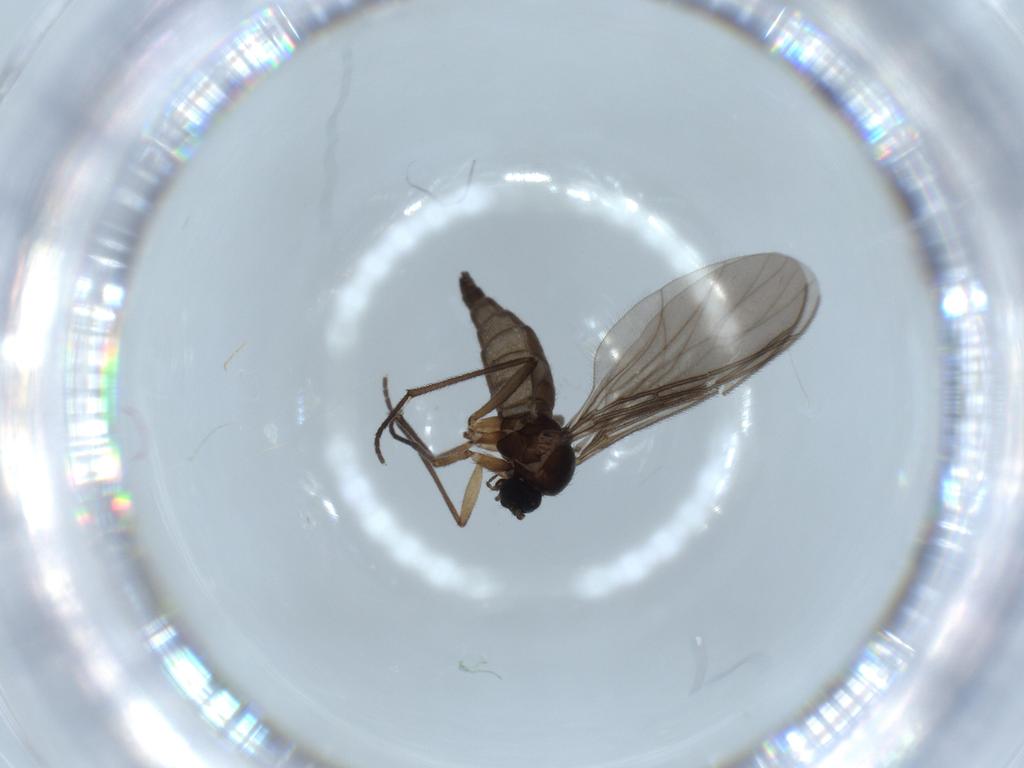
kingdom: Animalia
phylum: Arthropoda
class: Insecta
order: Diptera
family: Sciaridae
